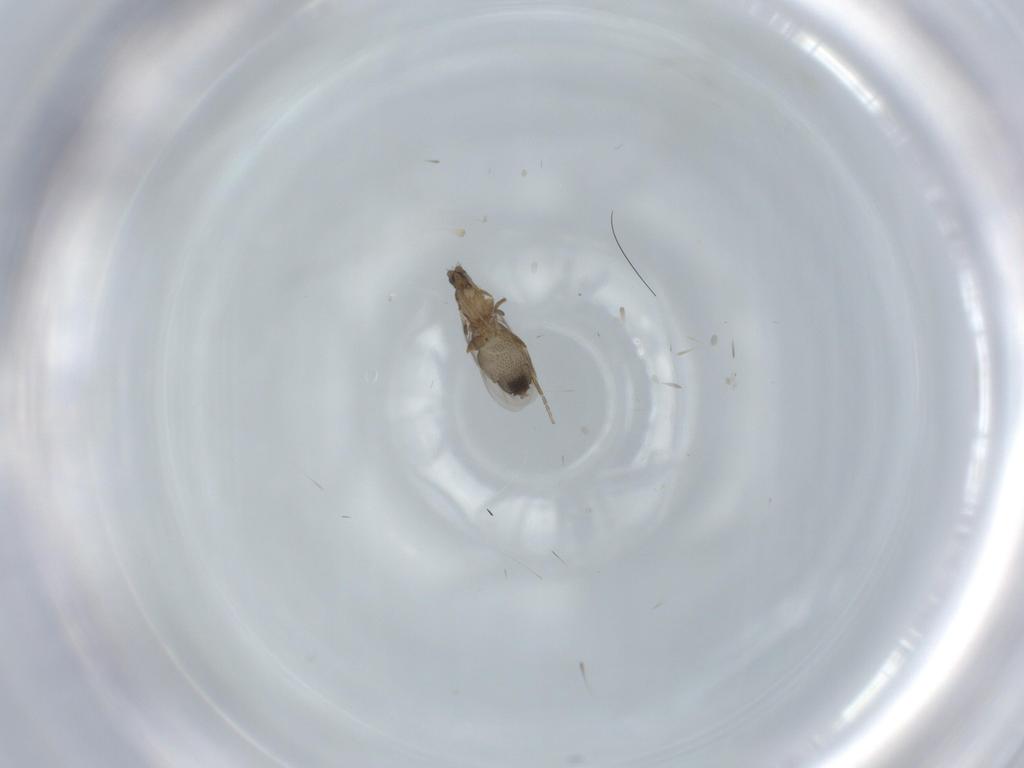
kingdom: Animalia
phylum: Arthropoda
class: Insecta
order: Diptera
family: Phoridae
